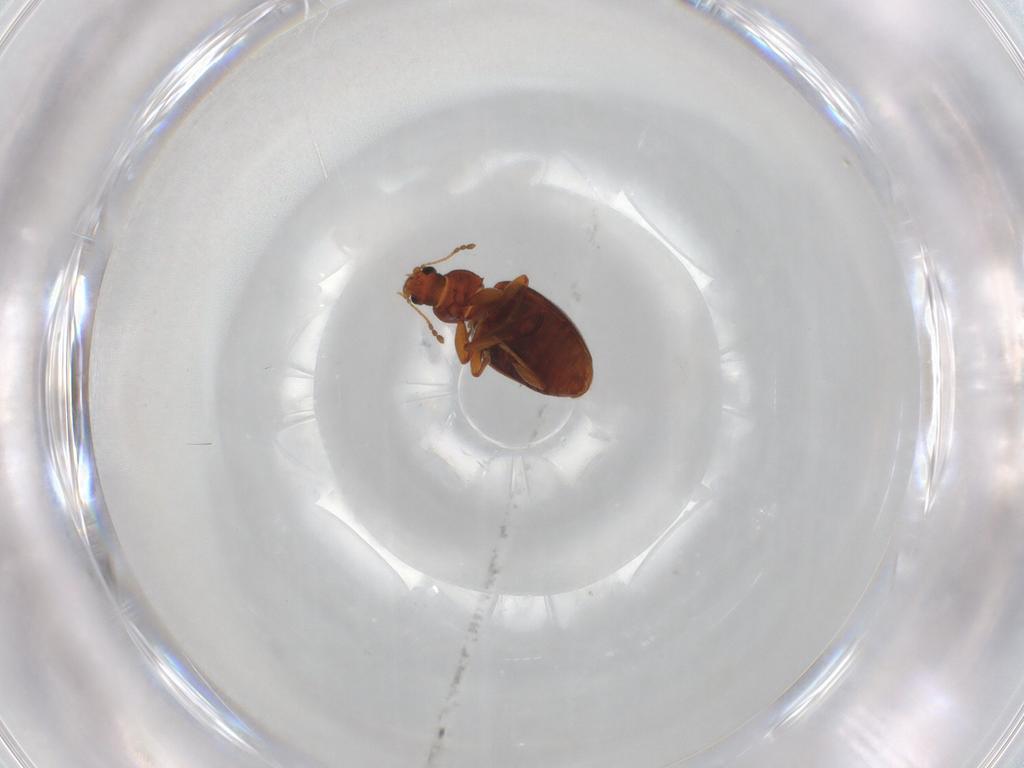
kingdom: Animalia
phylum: Arthropoda
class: Insecta
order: Coleoptera
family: Latridiidae
